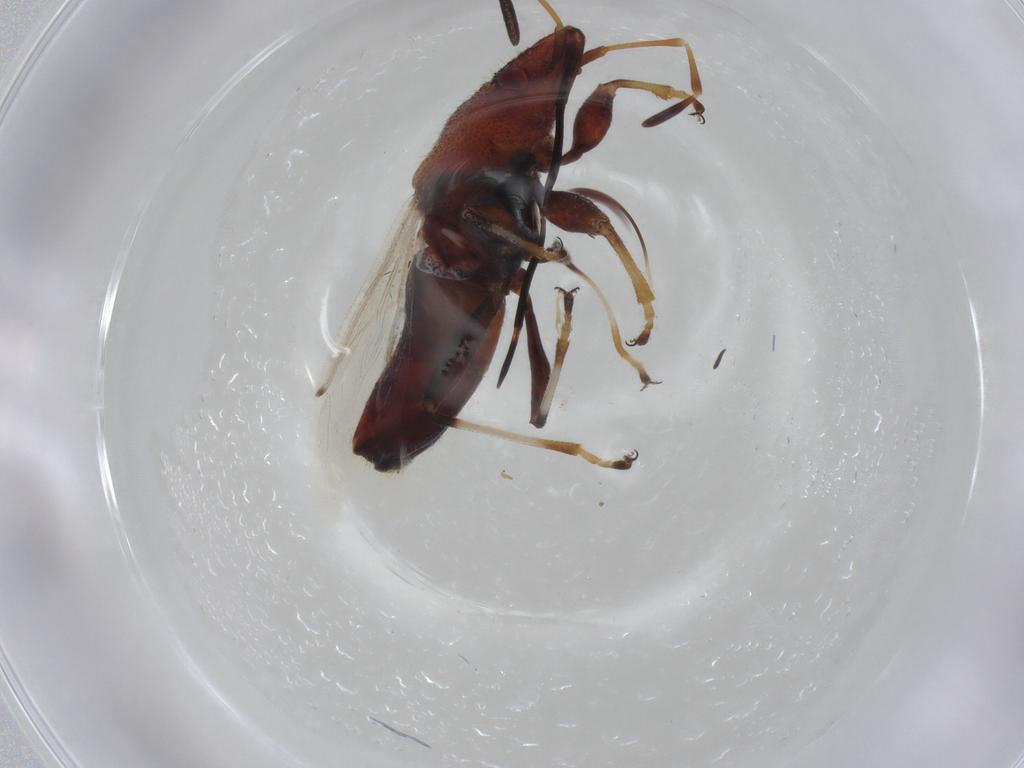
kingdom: Animalia
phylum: Arthropoda
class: Insecta
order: Hemiptera
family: Oxycarenidae
